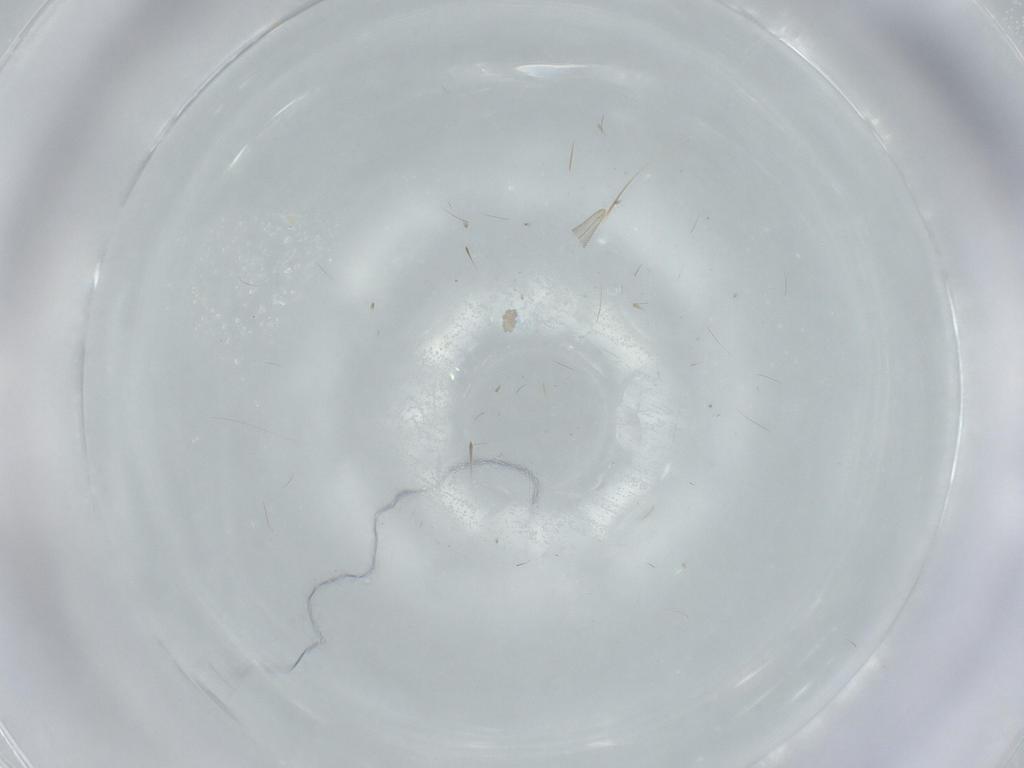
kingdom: Animalia
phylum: Arthropoda
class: Insecta
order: Psocodea
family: Lepidopsocidae
